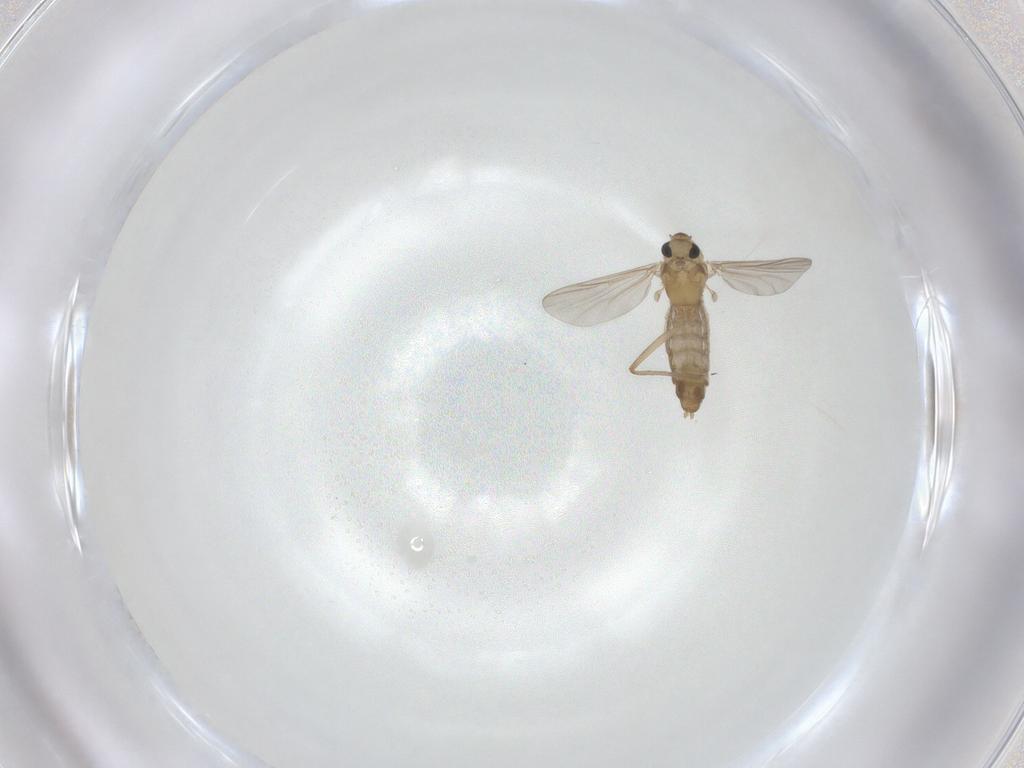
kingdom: Animalia
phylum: Arthropoda
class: Insecta
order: Diptera
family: Chironomidae
